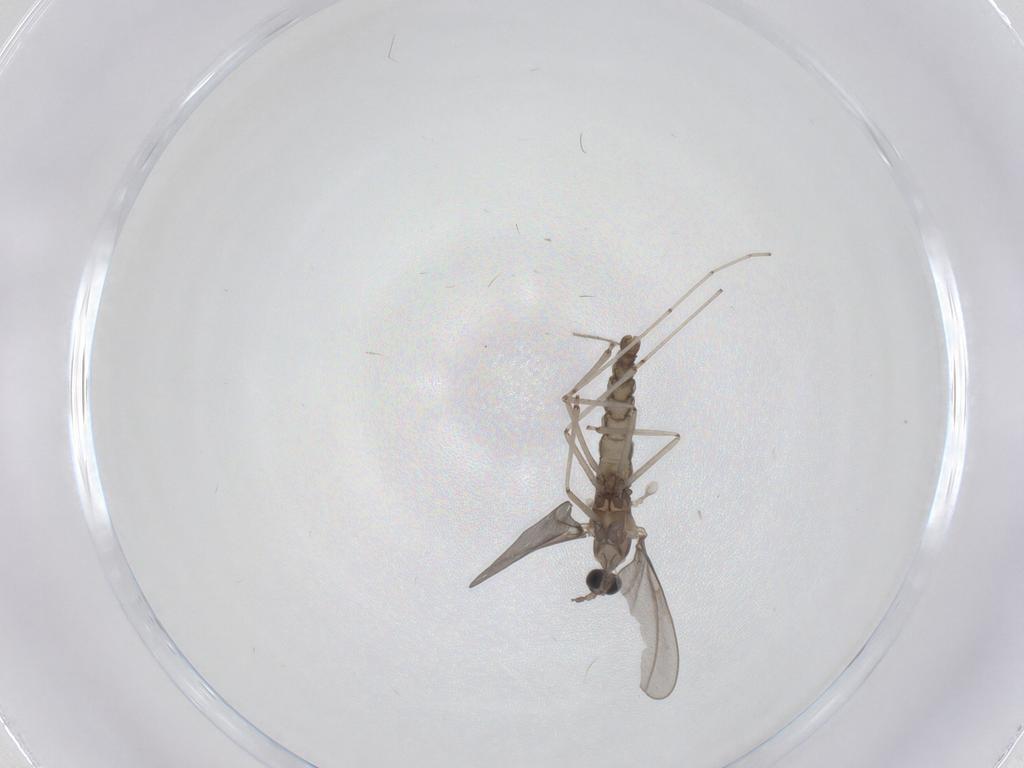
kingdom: Animalia
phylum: Arthropoda
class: Insecta
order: Diptera
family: Cecidomyiidae
